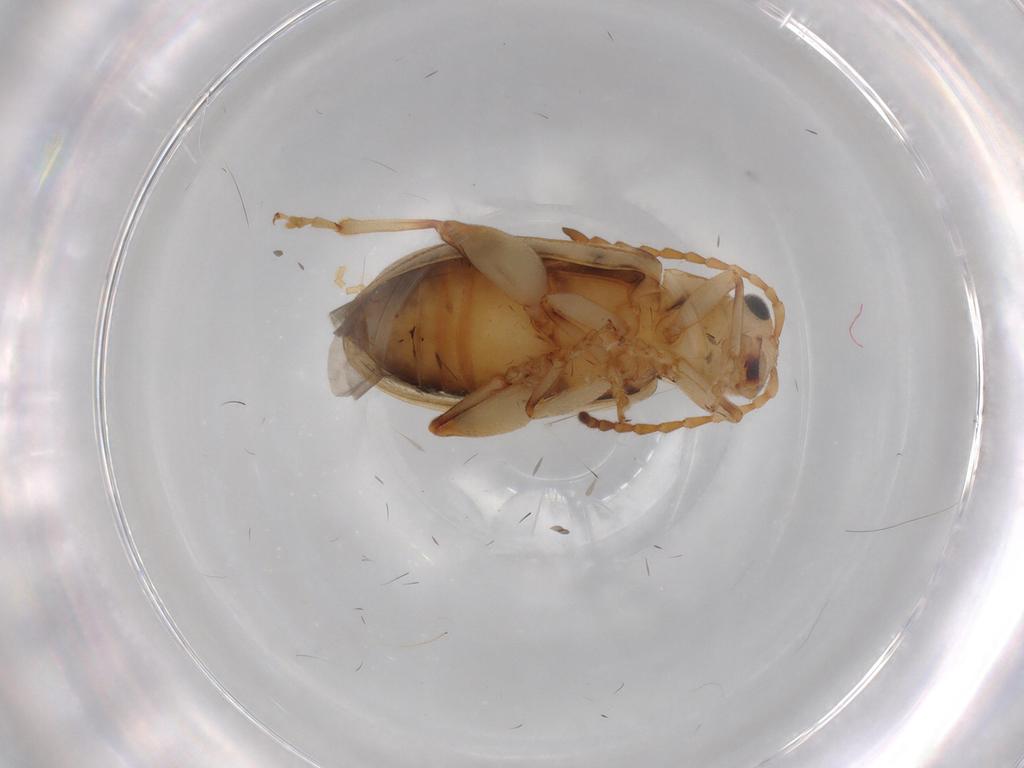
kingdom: Animalia
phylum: Arthropoda
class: Insecta
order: Coleoptera
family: Chrysomelidae
